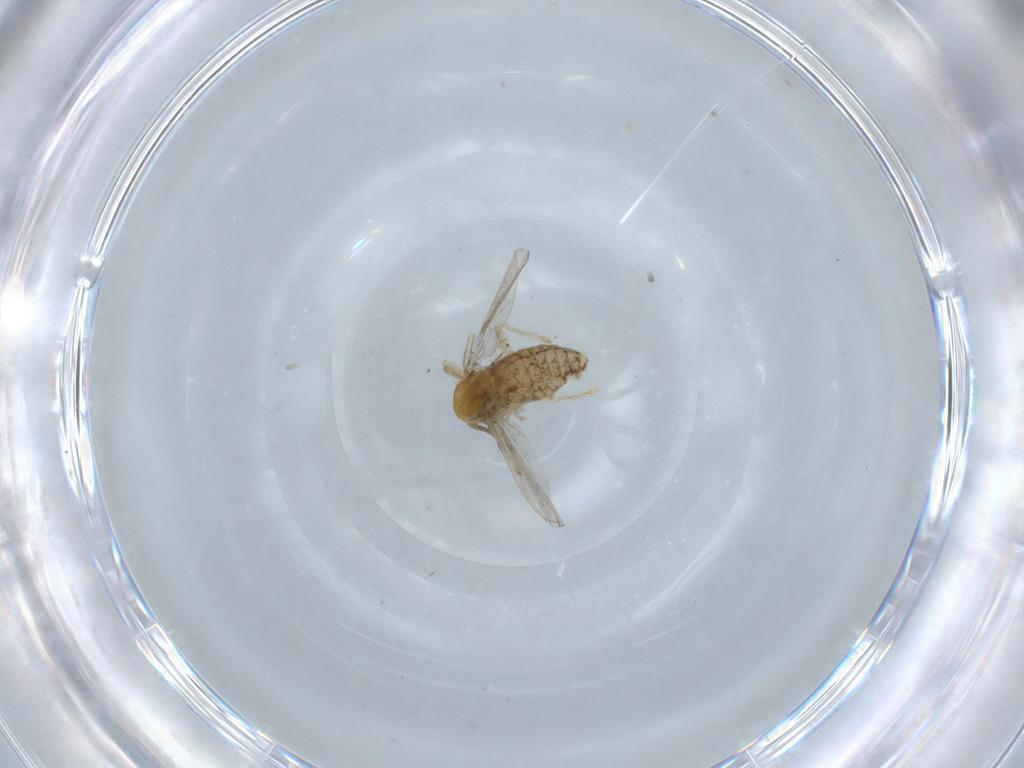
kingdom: Animalia
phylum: Arthropoda
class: Insecta
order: Diptera
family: Chironomidae
